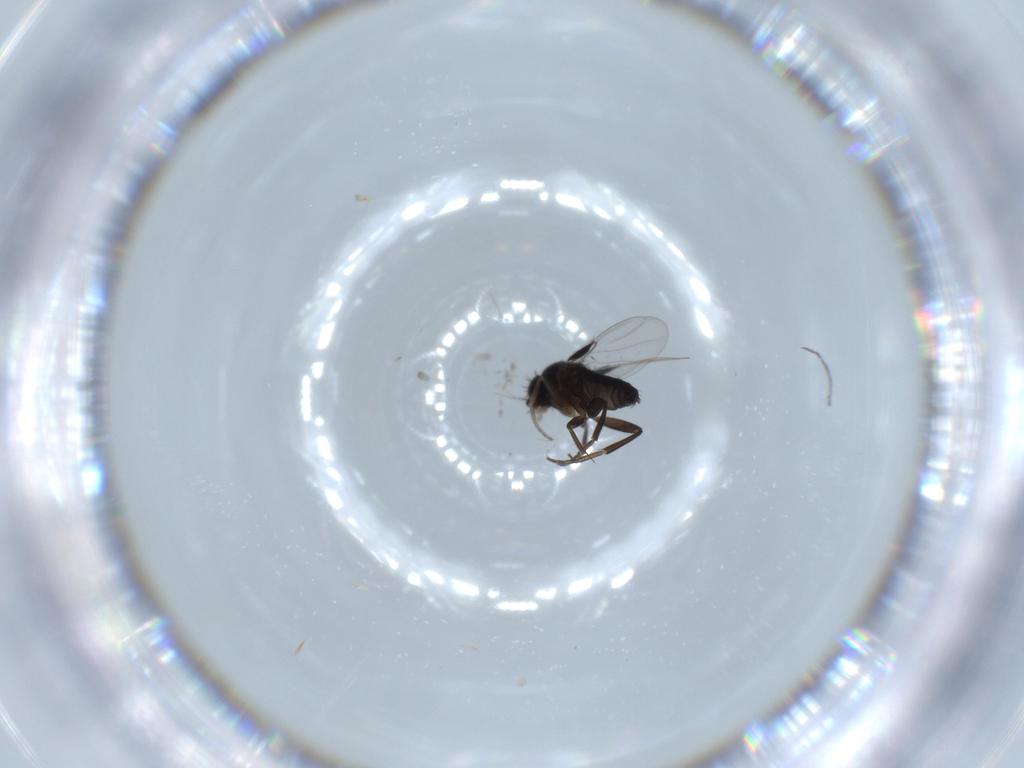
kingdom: Animalia
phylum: Arthropoda
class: Insecta
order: Diptera
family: Phoridae
